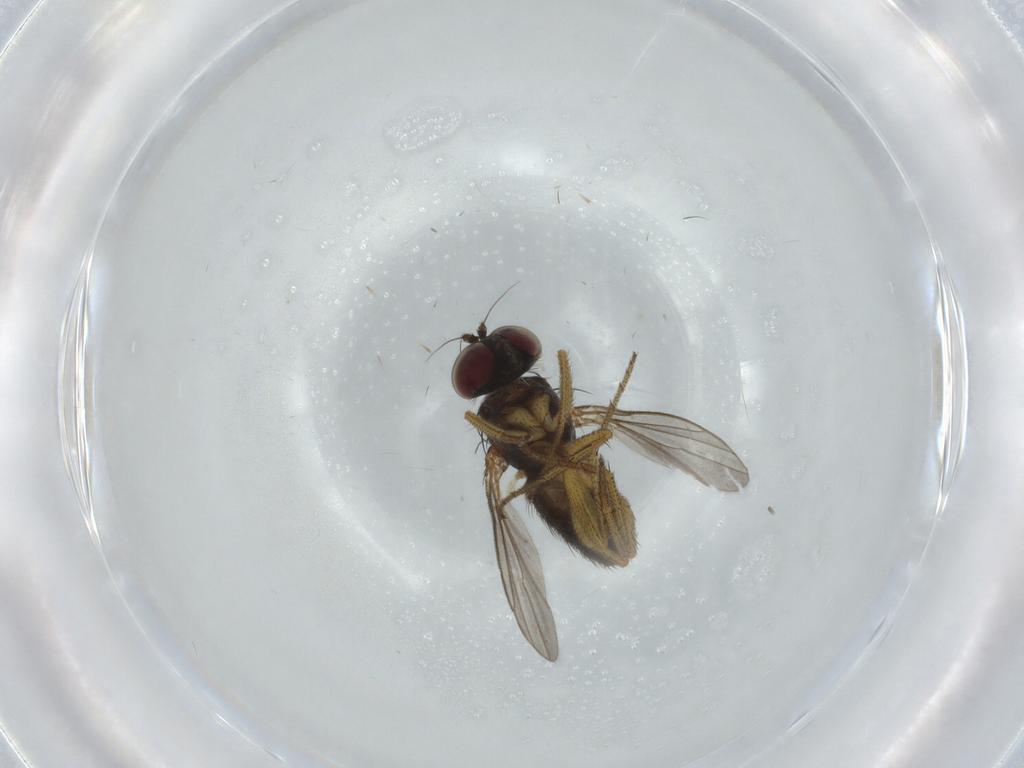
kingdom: Animalia
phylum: Arthropoda
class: Insecta
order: Diptera
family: Dolichopodidae
